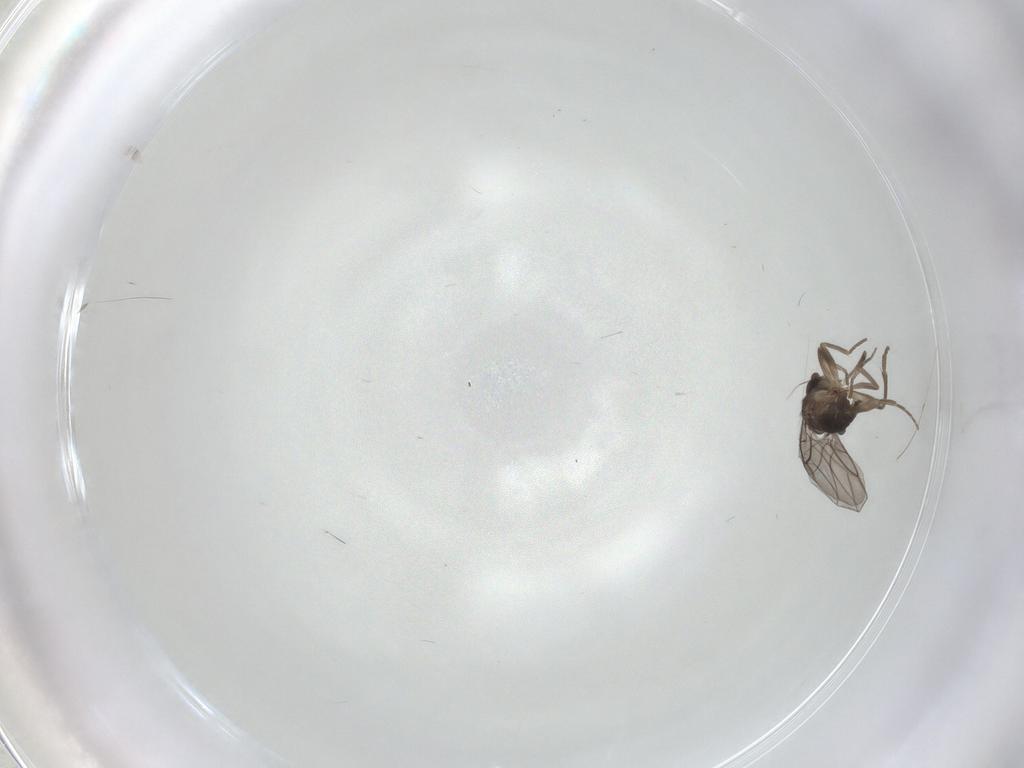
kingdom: Animalia
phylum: Arthropoda
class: Insecta
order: Diptera
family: Phoridae
